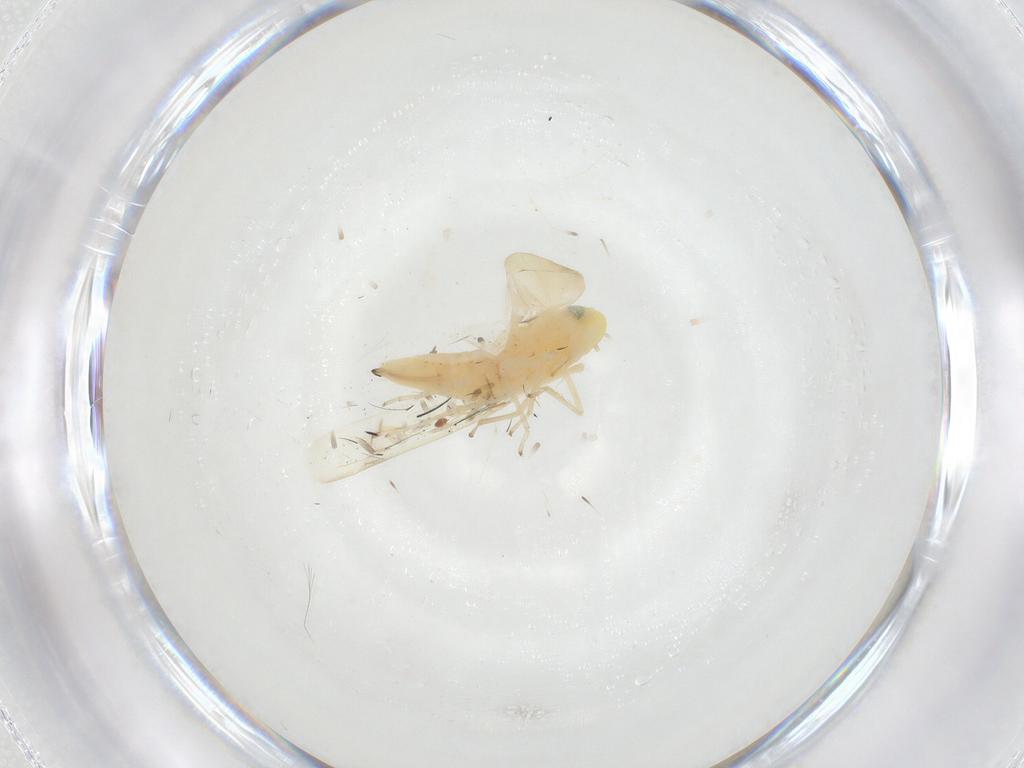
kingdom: Animalia
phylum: Arthropoda
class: Insecta
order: Hemiptera
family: Cicadellidae
